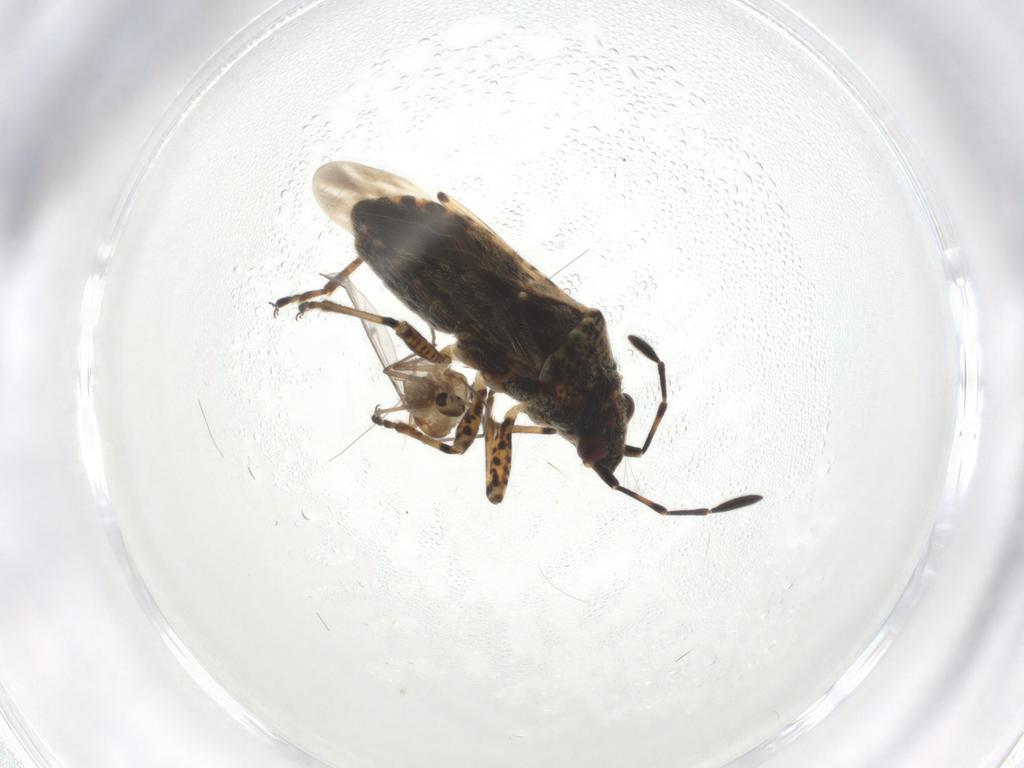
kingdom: Animalia
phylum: Arthropoda
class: Insecta
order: Hemiptera
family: Lygaeidae
